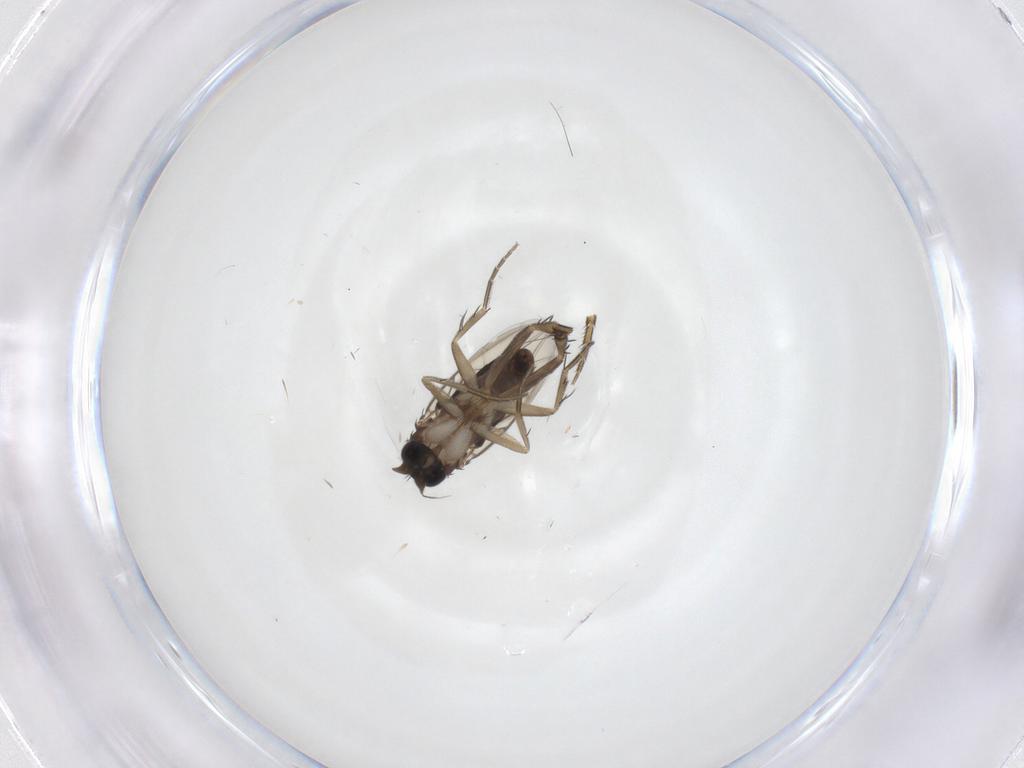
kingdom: Animalia
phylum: Arthropoda
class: Insecta
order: Diptera
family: Phoridae
